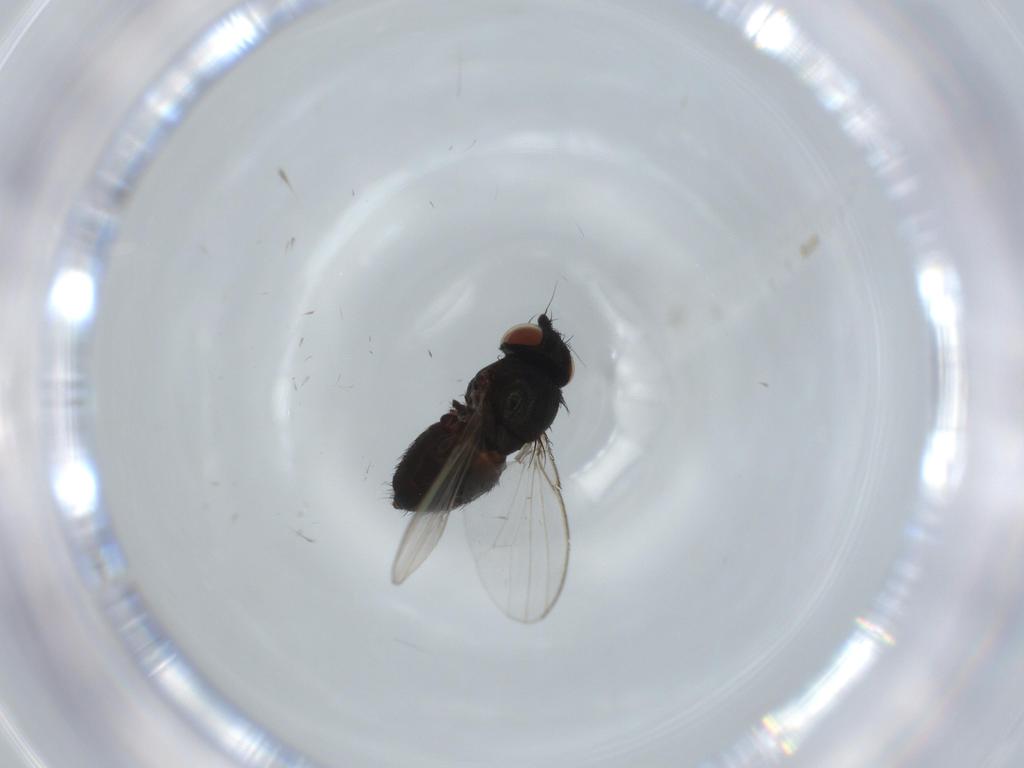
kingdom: Animalia
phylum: Arthropoda
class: Insecta
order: Diptera
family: Milichiidae
